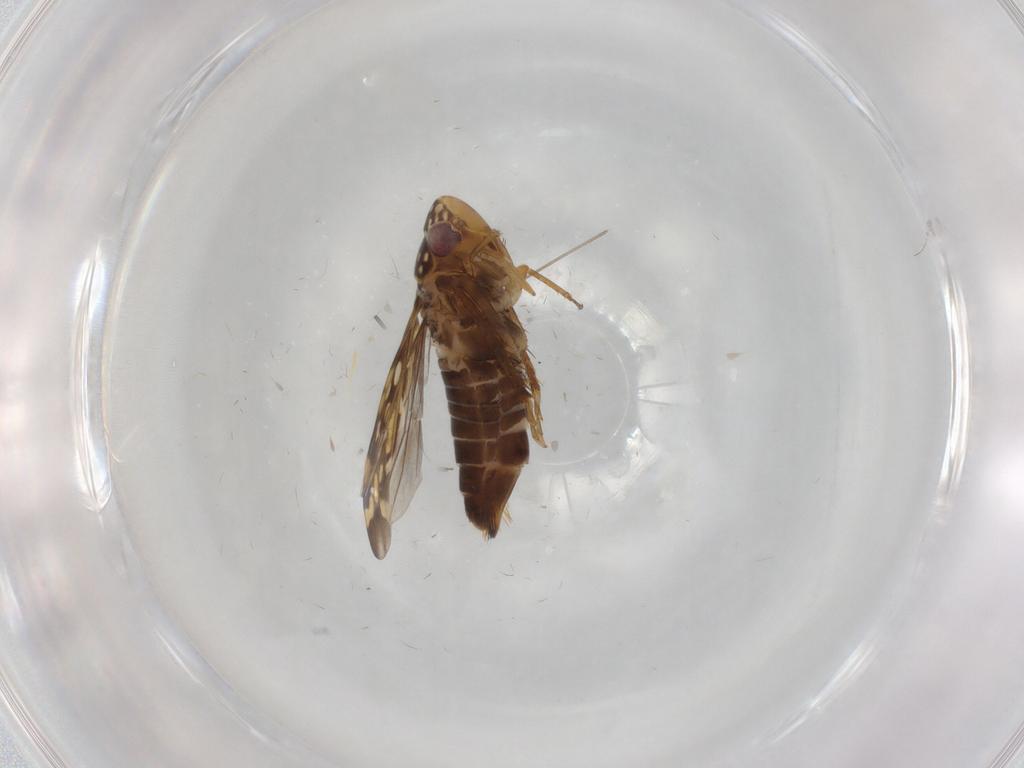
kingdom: Animalia
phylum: Arthropoda
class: Insecta
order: Hemiptera
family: Cicadellidae
